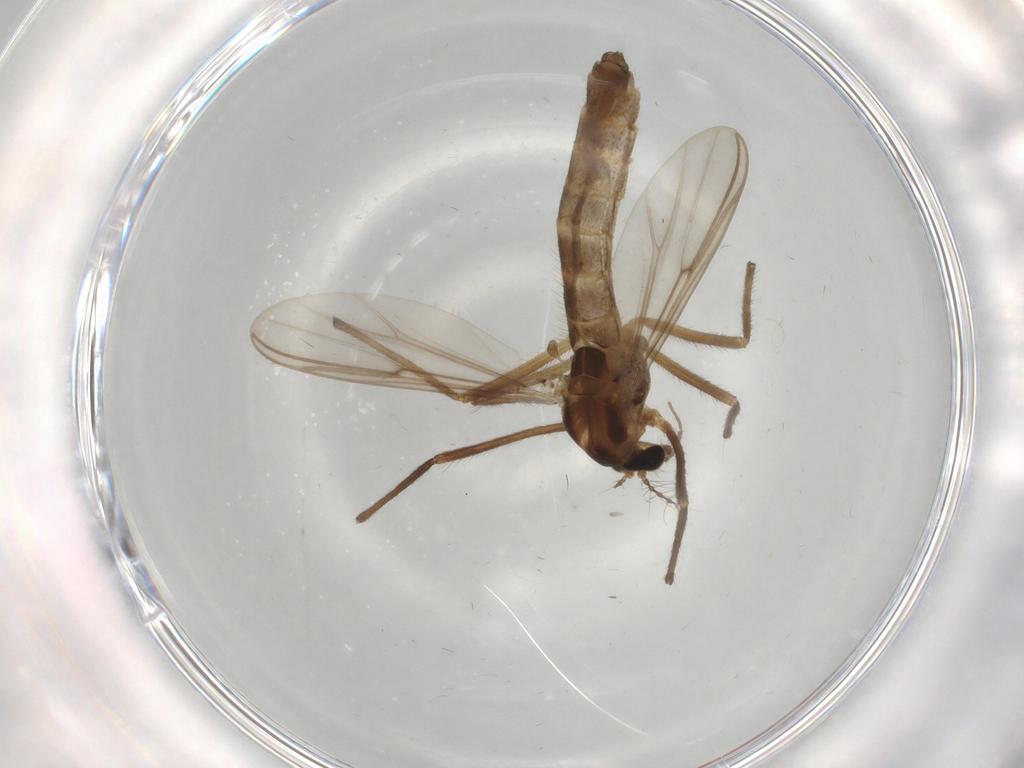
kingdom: Animalia
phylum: Arthropoda
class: Insecta
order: Diptera
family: Chironomidae
